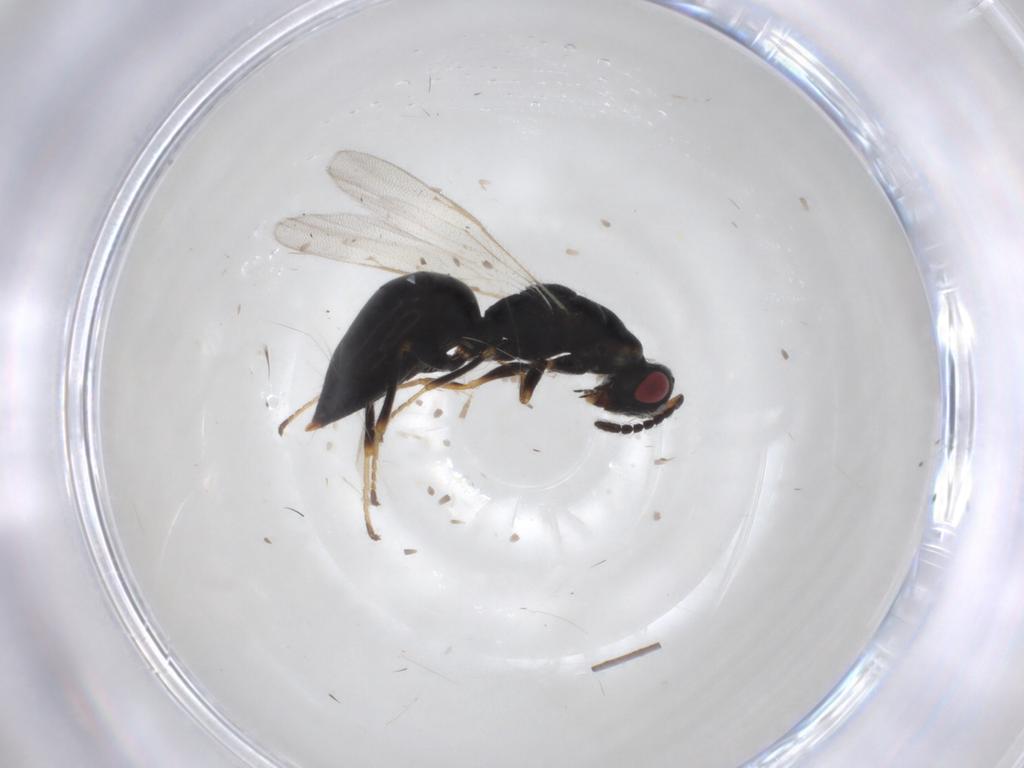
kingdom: Animalia
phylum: Arthropoda
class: Insecta
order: Hymenoptera
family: Eurytomidae
